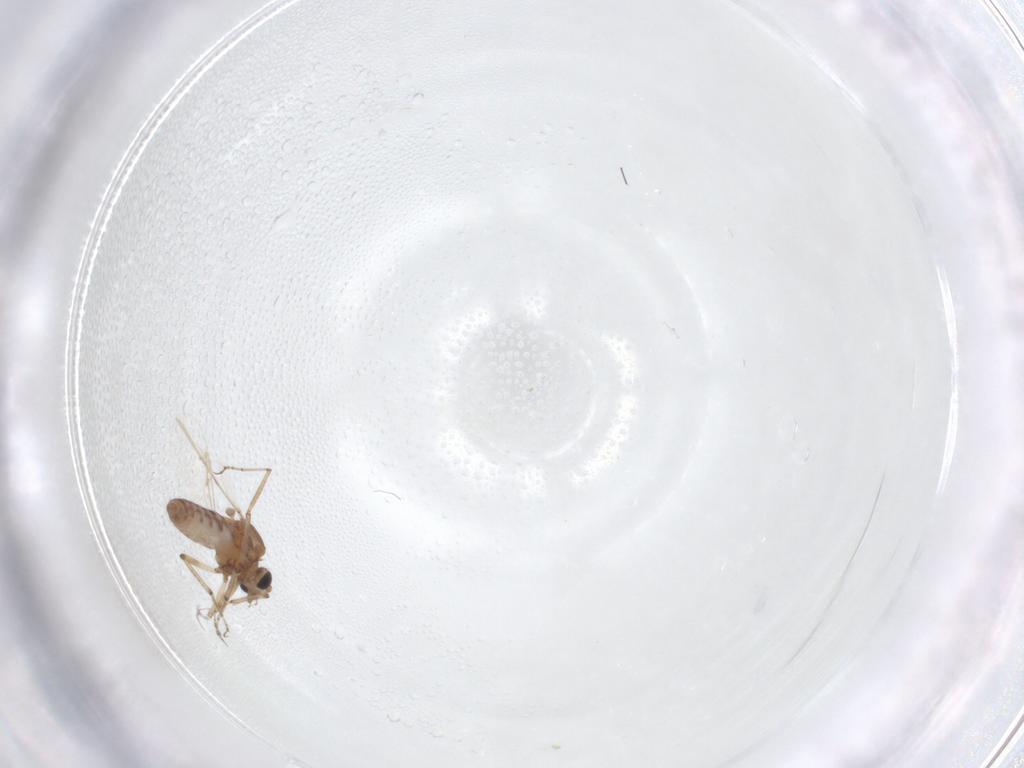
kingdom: Animalia
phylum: Arthropoda
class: Insecta
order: Diptera
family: Ceratopogonidae
